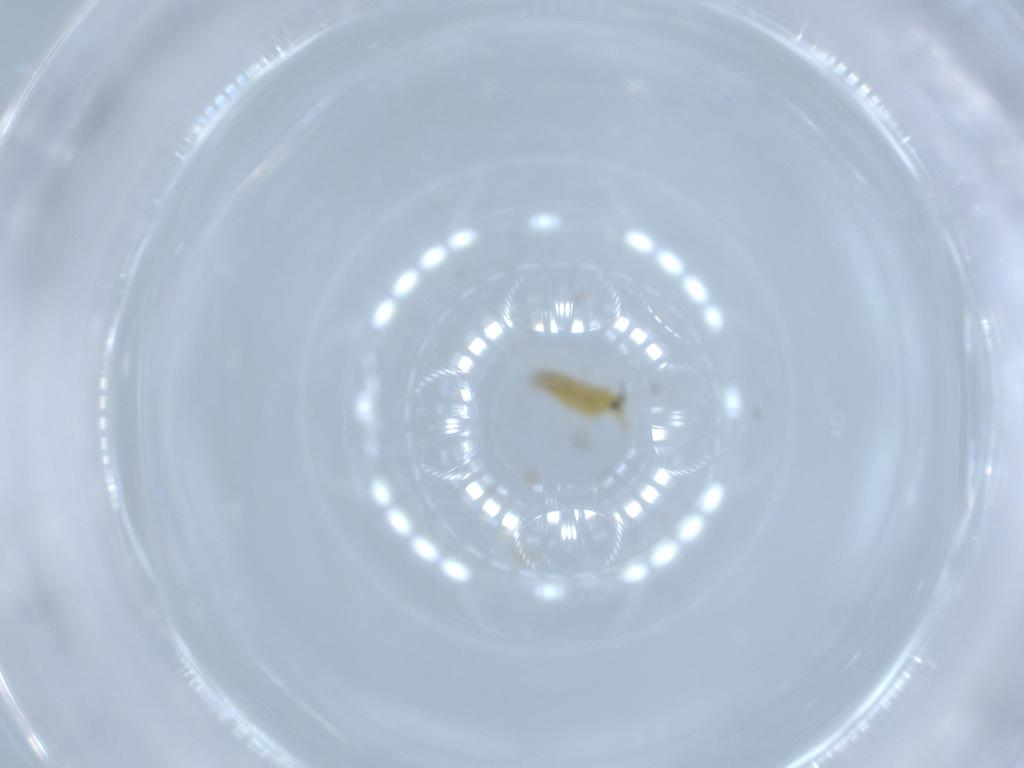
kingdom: Animalia
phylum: Arthropoda
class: Insecta
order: Thysanoptera
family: Thripidae
